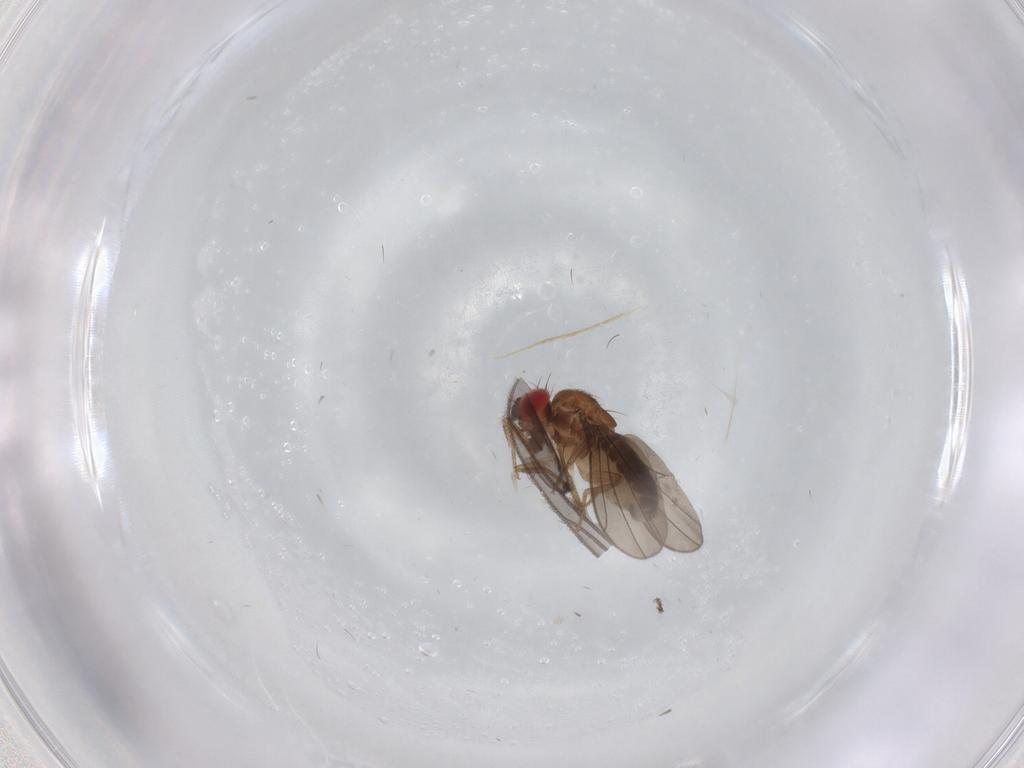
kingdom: Animalia
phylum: Arthropoda
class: Insecta
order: Diptera
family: Sciaridae
